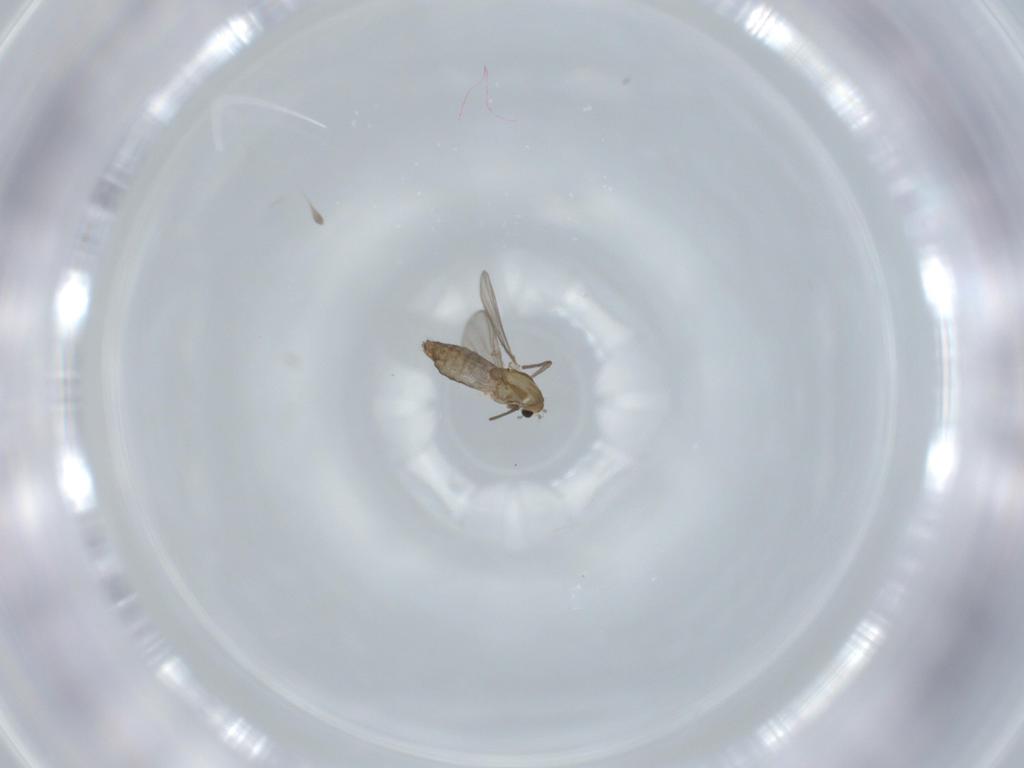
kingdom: Animalia
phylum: Arthropoda
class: Insecta
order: Diptera
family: Chironomidae
